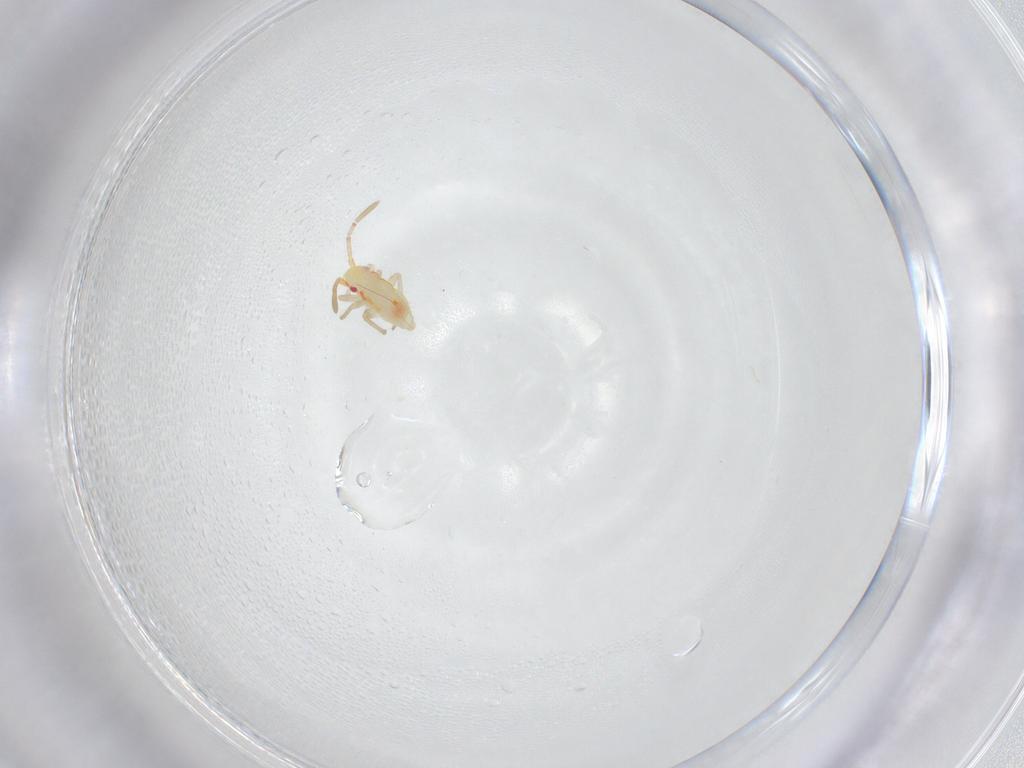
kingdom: Animalia
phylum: Arthropoda
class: Insecta
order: Hemiptera
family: Miridae
